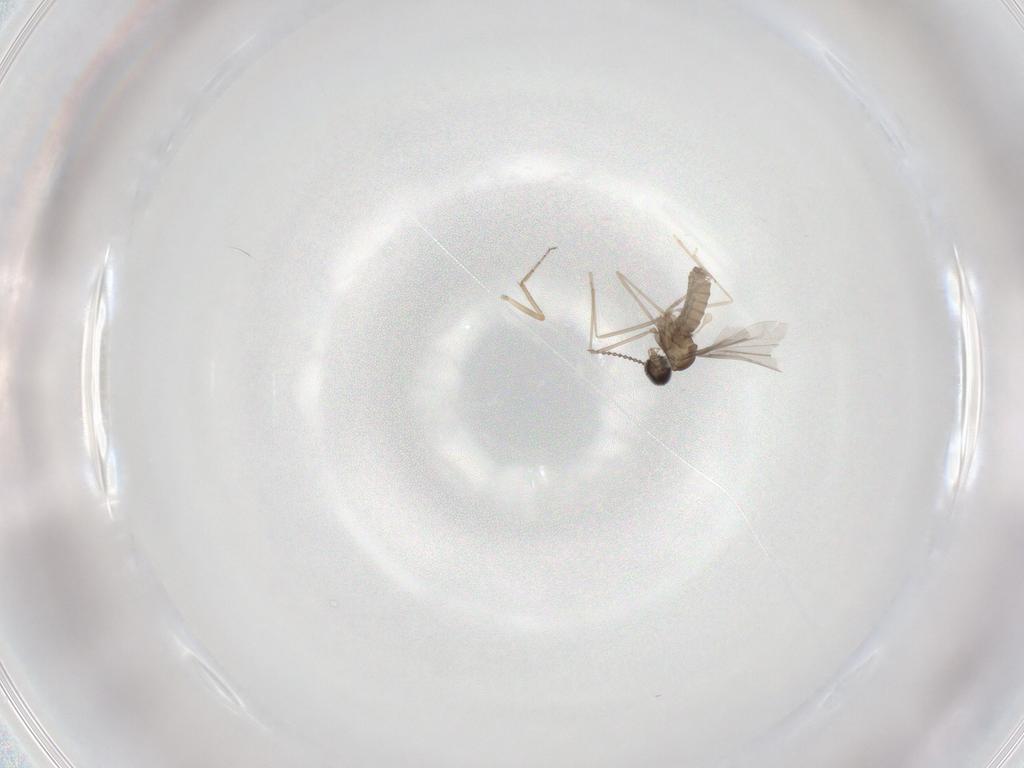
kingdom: Animalia
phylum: Arthropoda
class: Insecta
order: Diptera
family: Ceratopogonidae
